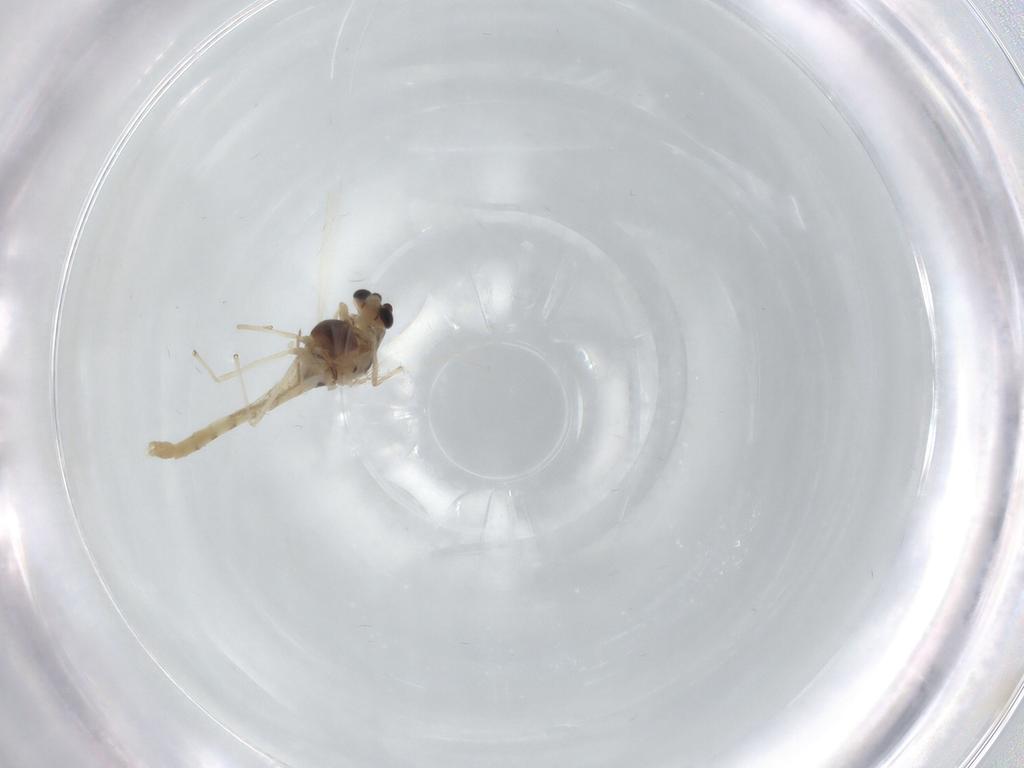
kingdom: Animalia
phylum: Arthropoda
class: Insecta
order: Diptera
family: Chironomidae
